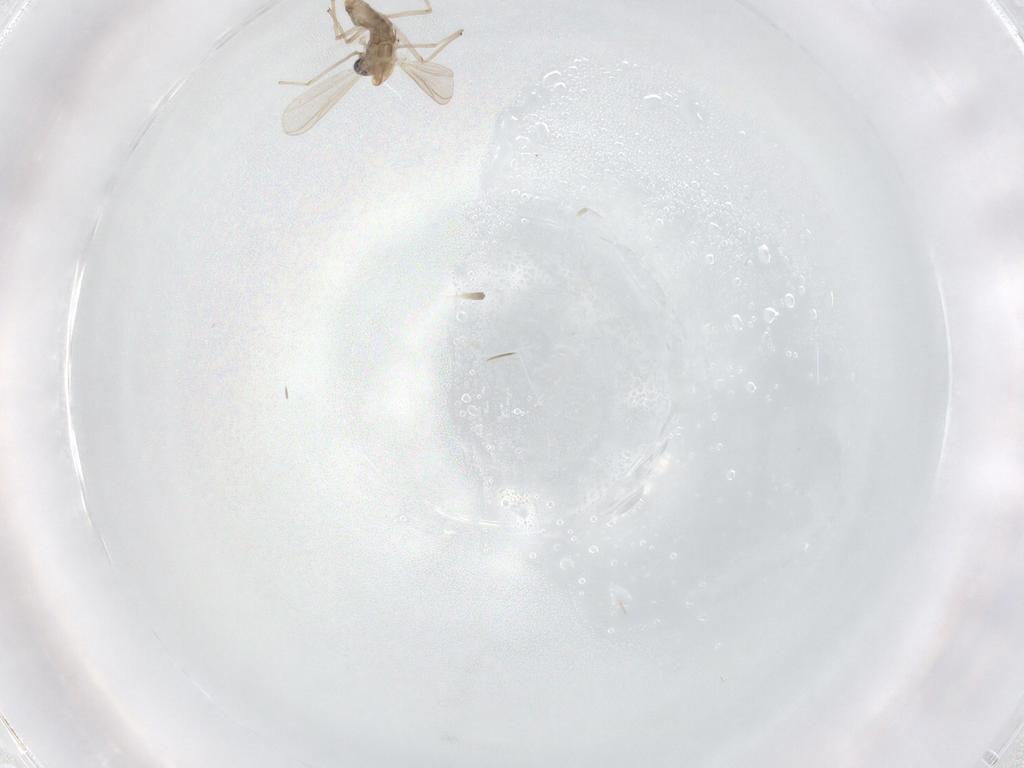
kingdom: Animalia
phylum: Arthropoda
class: Insecta
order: Diptera
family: Chironomidae
